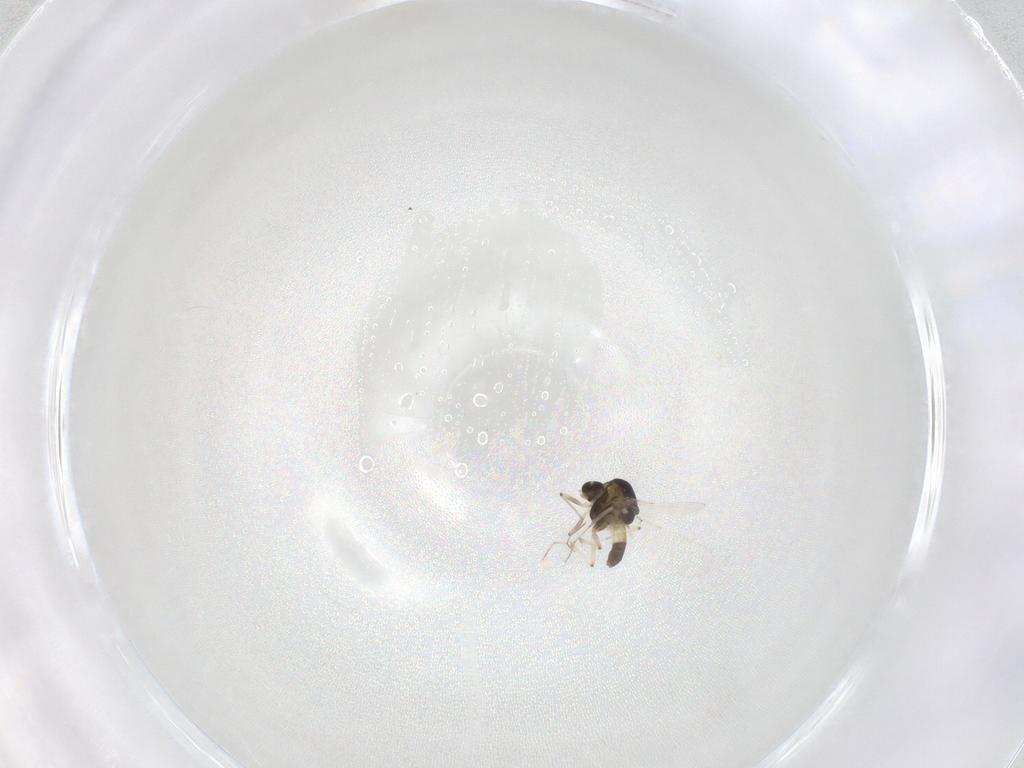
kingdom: Animalia
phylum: Arthropoda
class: Insecta
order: Diptera
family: Chironomidae
